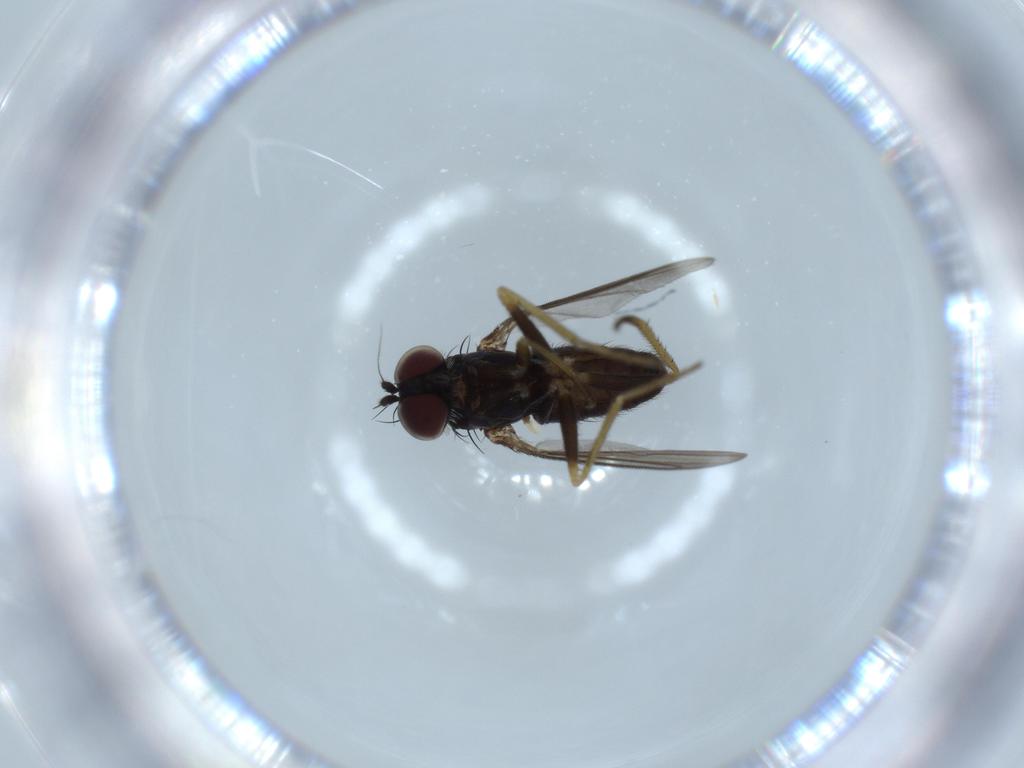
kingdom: Animalia
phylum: Arthropoda
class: Insecta
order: Diptera
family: Dolichopodidae
